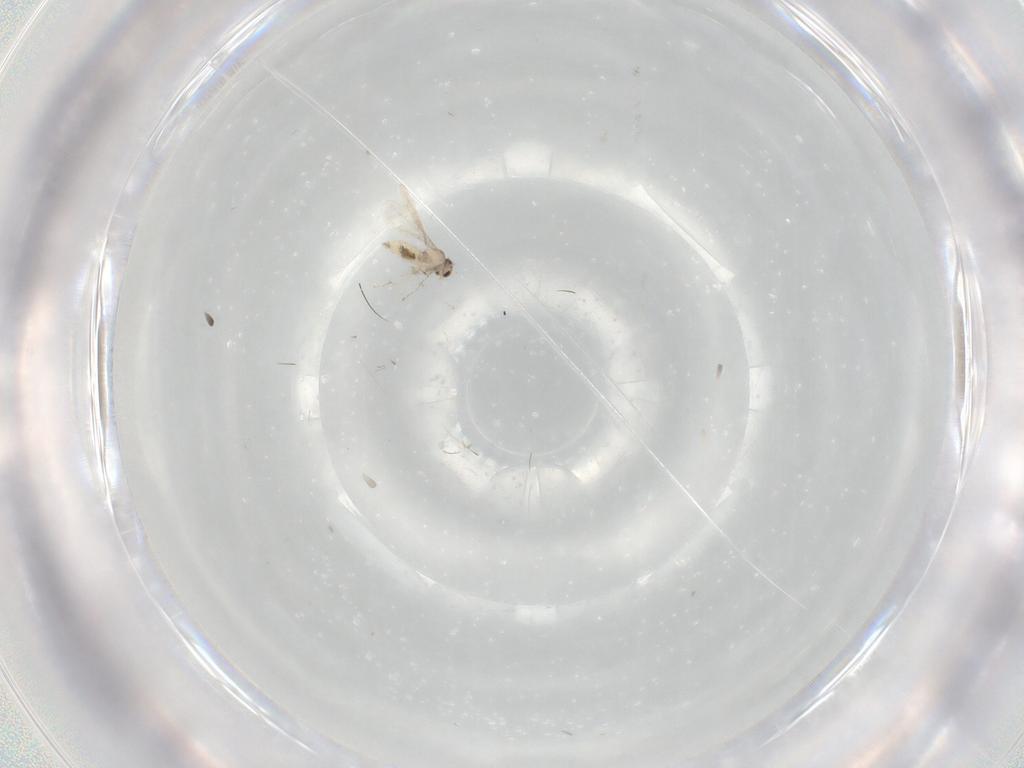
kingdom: Animalia
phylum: Arthropoda
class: Insecta
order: Diptera
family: Cecidomyiidae
